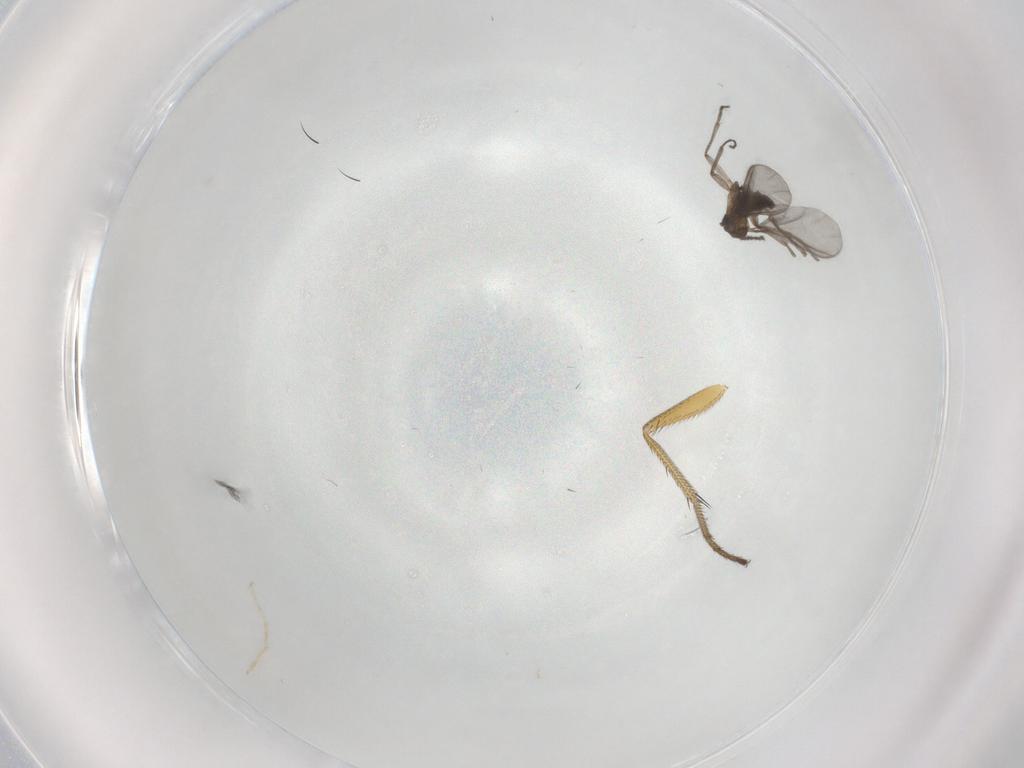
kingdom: Animalia
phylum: Arthropoda
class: Insecta
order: Diptera
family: Sciaridae
